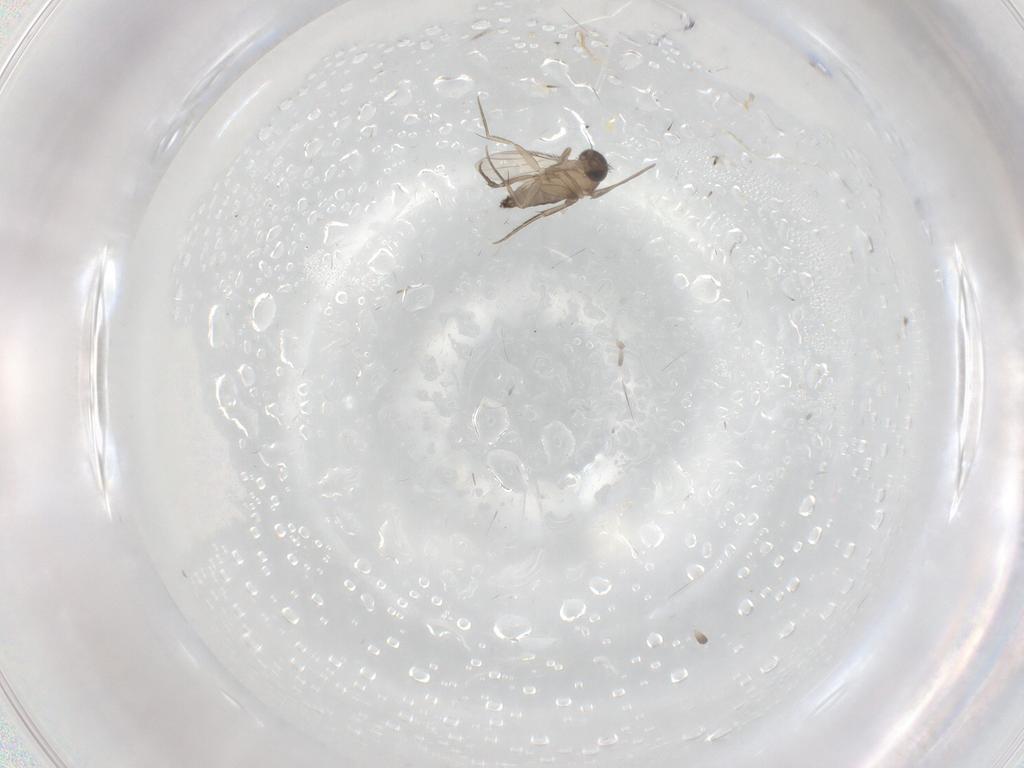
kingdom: Animalia
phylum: Arthropoda
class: Insecta
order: Diptera
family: Phoridae
